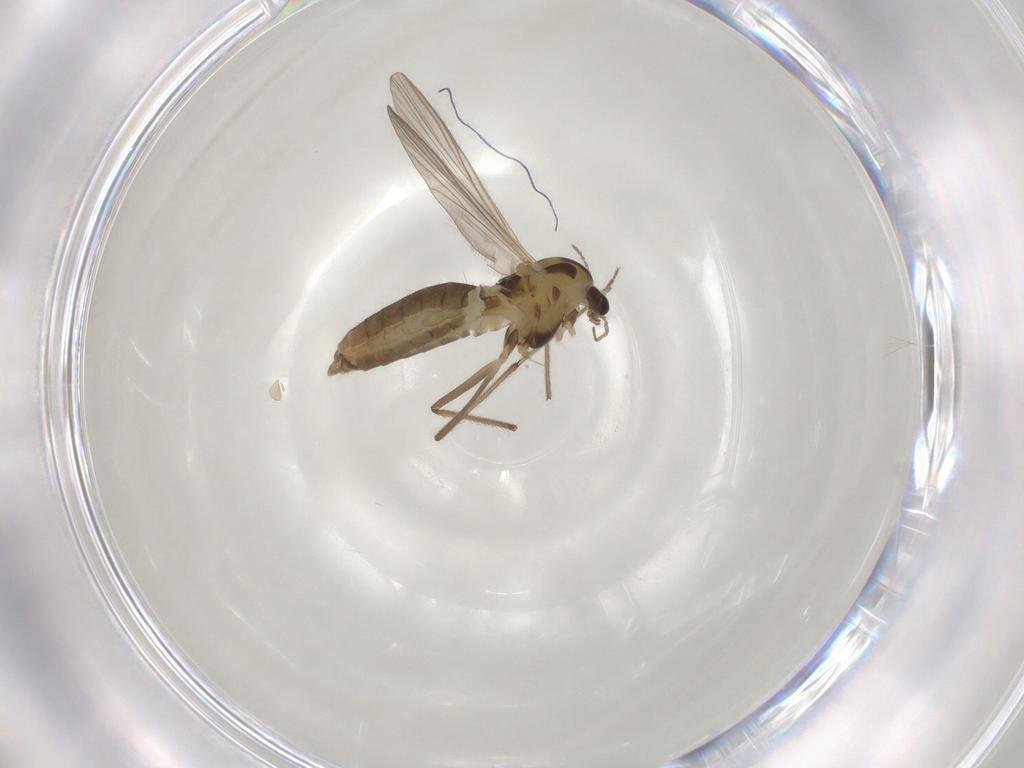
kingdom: Animalia
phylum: Arthropoda
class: Insecta
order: Diptera
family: Chironomidae
